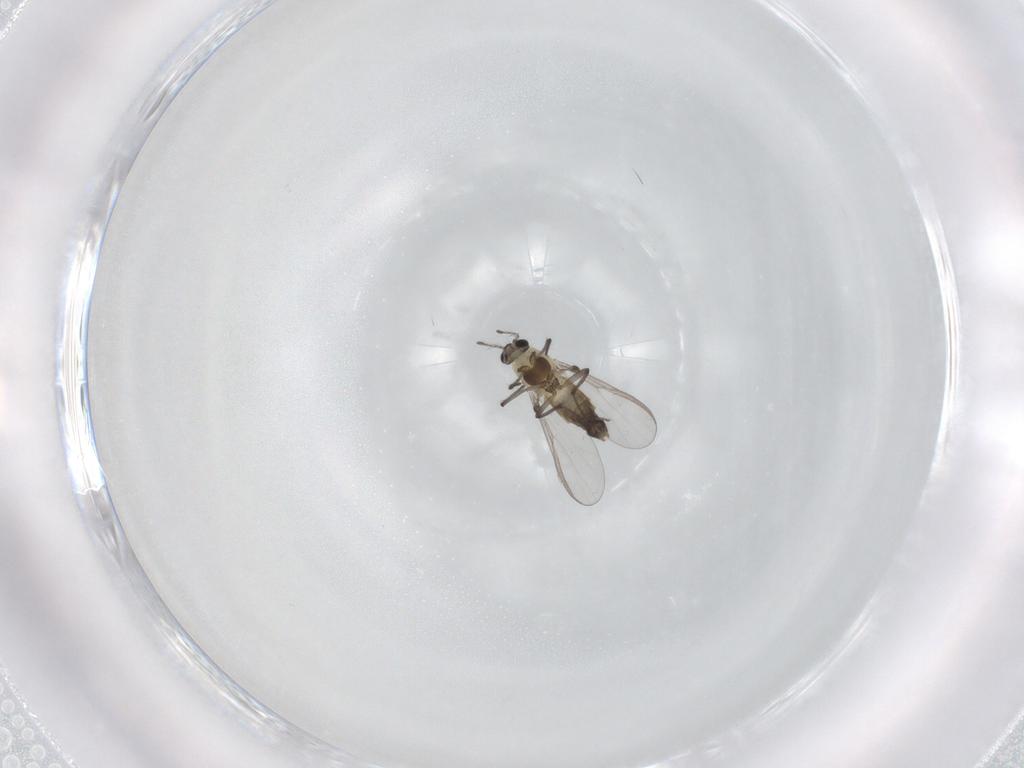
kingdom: Animalia
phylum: Arthropoda
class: Insecta
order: Diptera
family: Chironomidae
